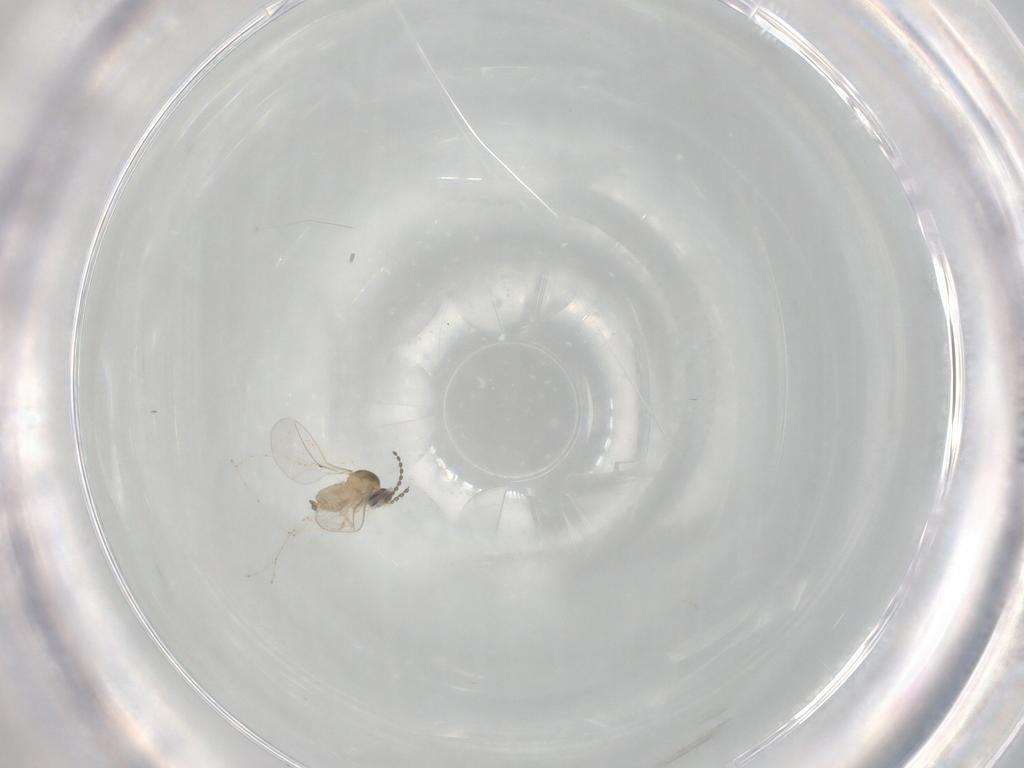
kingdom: Animalia
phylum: Arthropoda
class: Insecta
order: Diptera
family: Cecidomyiidae
